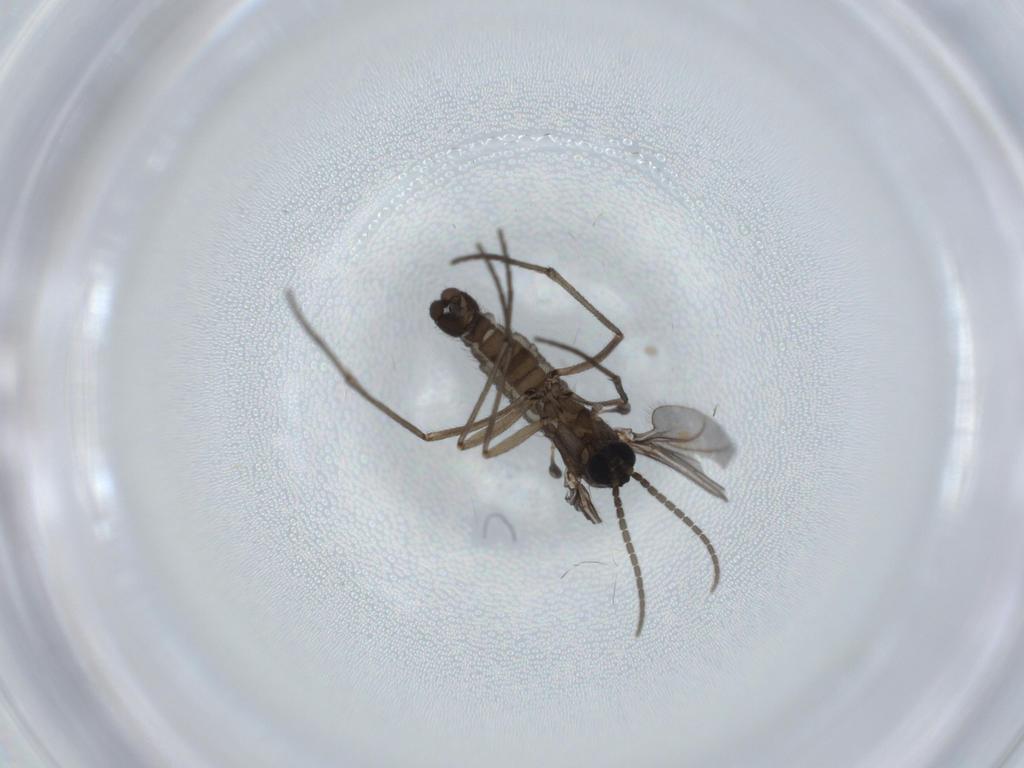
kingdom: Animalia
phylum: Arthropoda
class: Insecta
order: Diptera
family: Sciaridae
